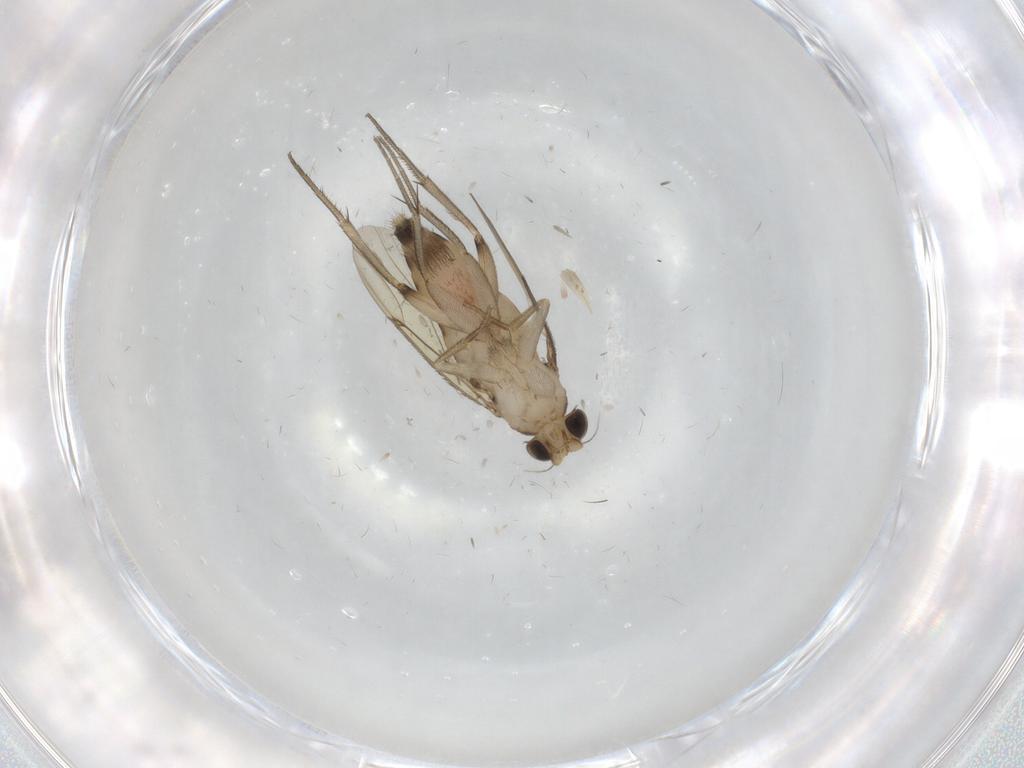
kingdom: Animalia
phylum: Arthropoda
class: Insecta
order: Diptera
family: Phoridae
